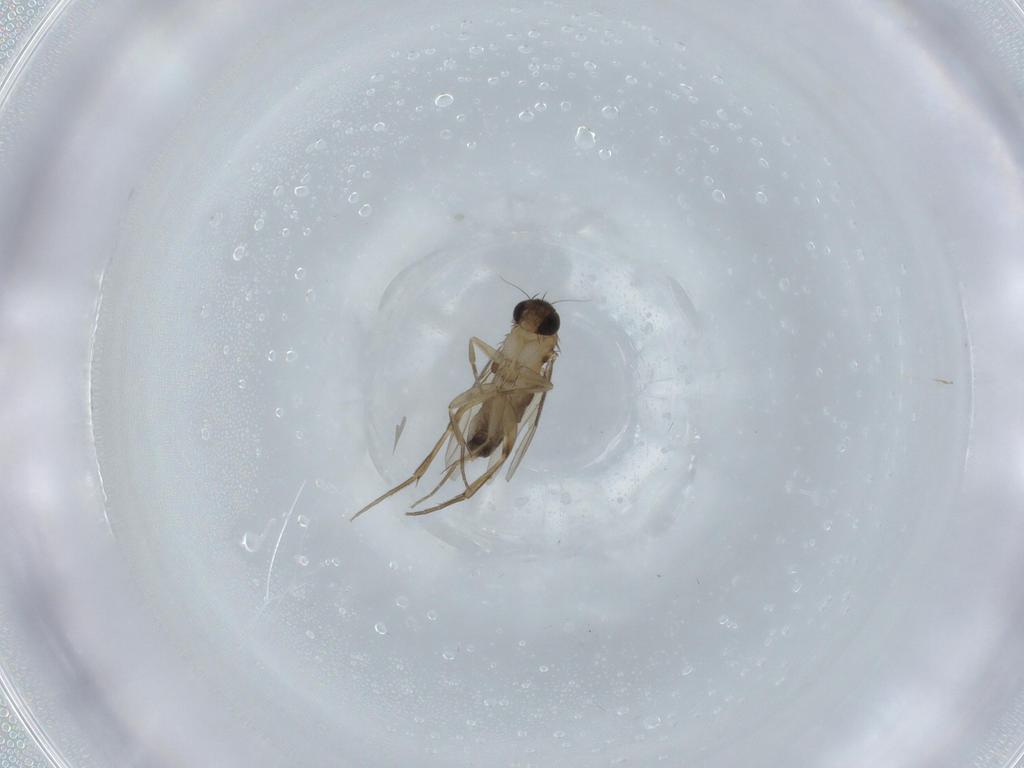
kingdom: Animalia
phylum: Arthropoda
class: Insecta
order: Diptera
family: Phoridae
